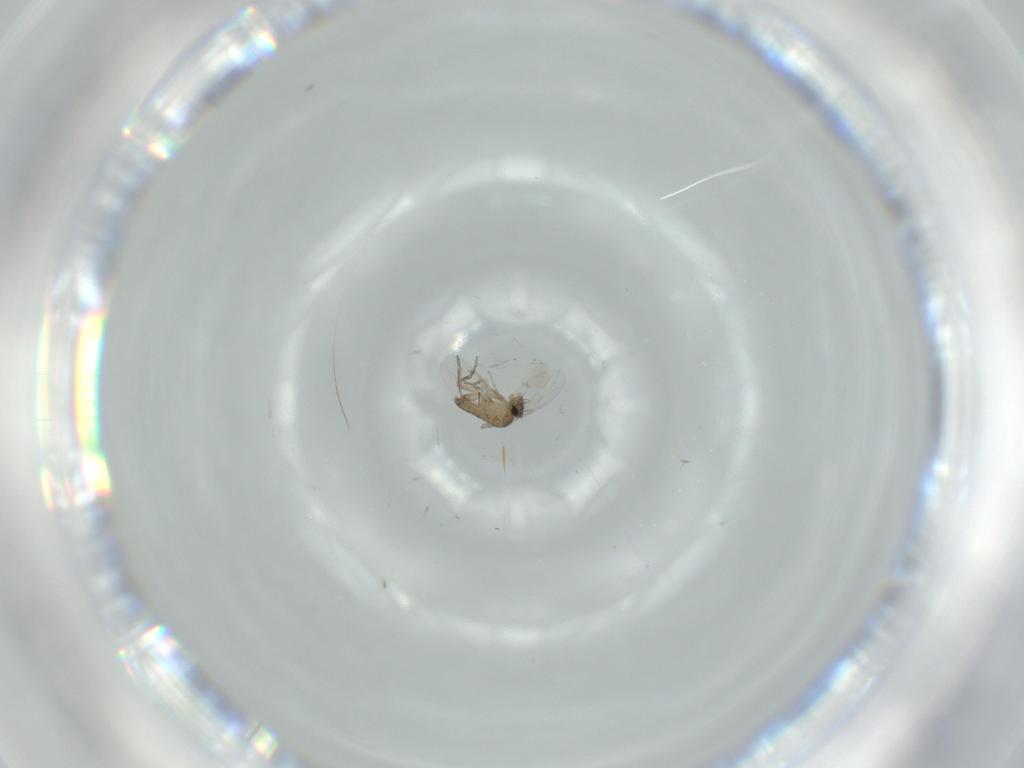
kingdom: Animalia
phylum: Arthropoda
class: Insecta
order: Diptera
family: Phoridae
